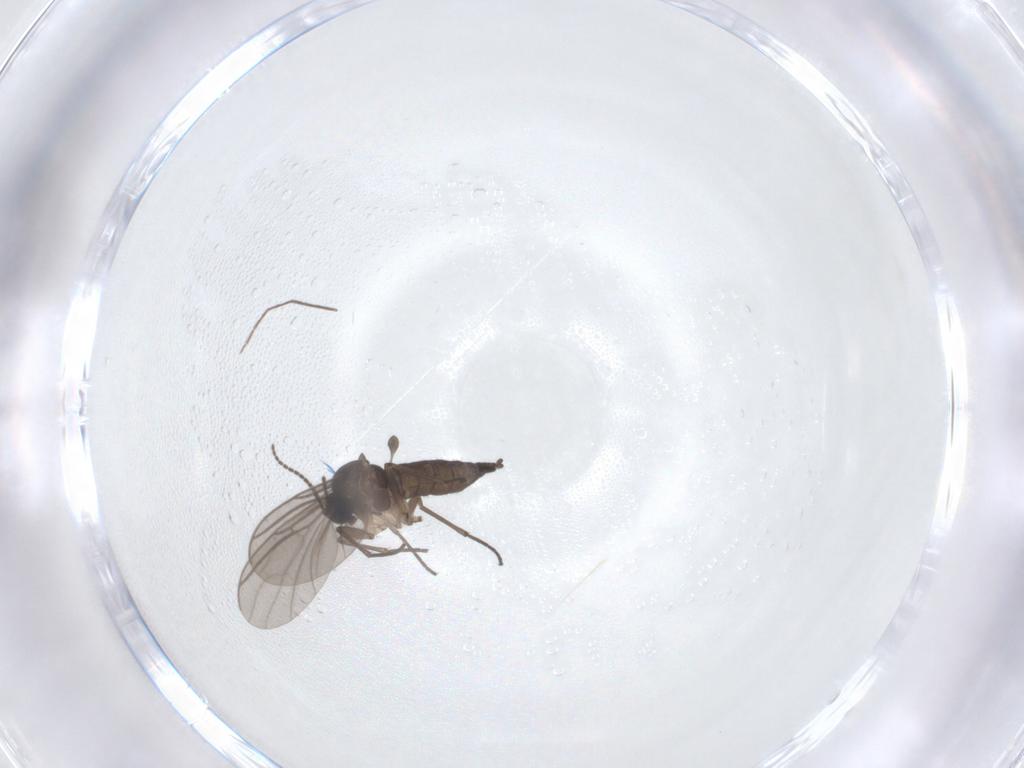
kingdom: Animalia
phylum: Arthropoda
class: Insecta
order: Diptera
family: Sciaridae
